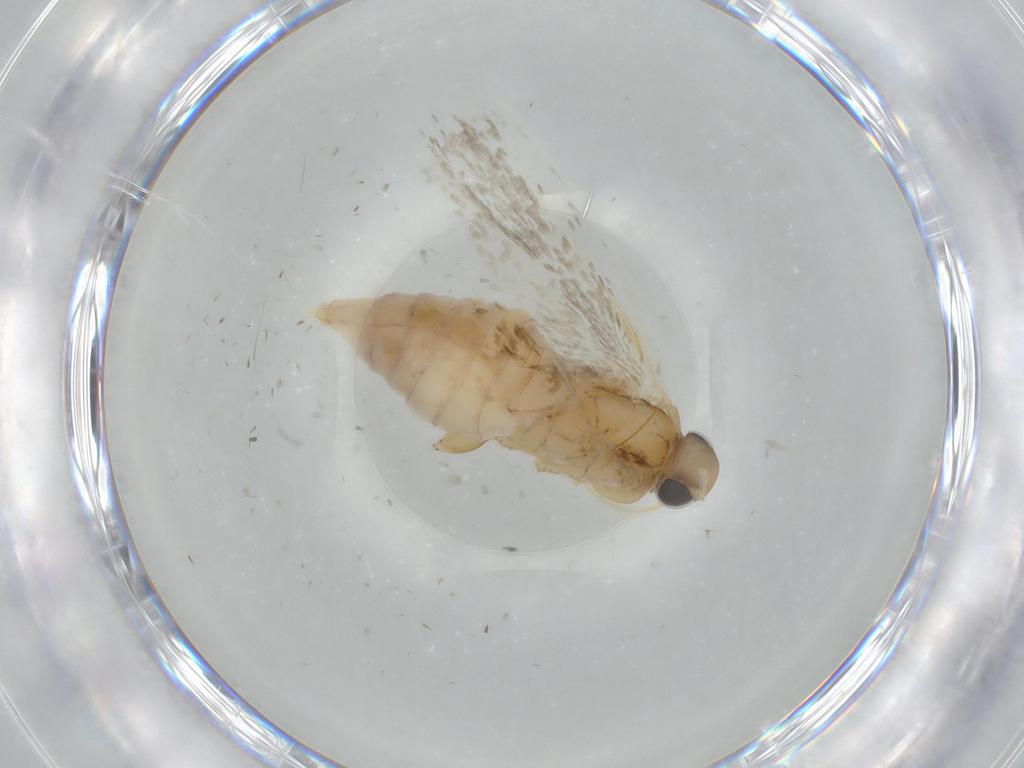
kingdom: Animalia
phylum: Arthropoda
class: Insecta
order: Lepidoptera
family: Gelechiidae
